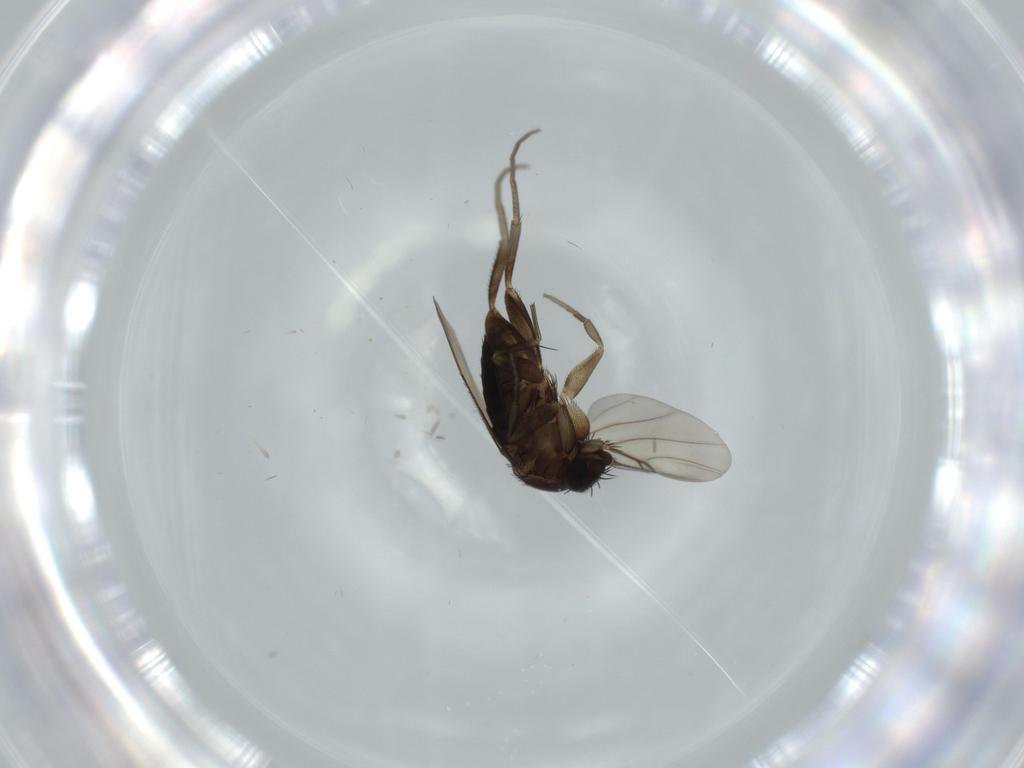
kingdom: Animalia
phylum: Arthropoda
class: Insecta
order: Diptera
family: Phoridae
